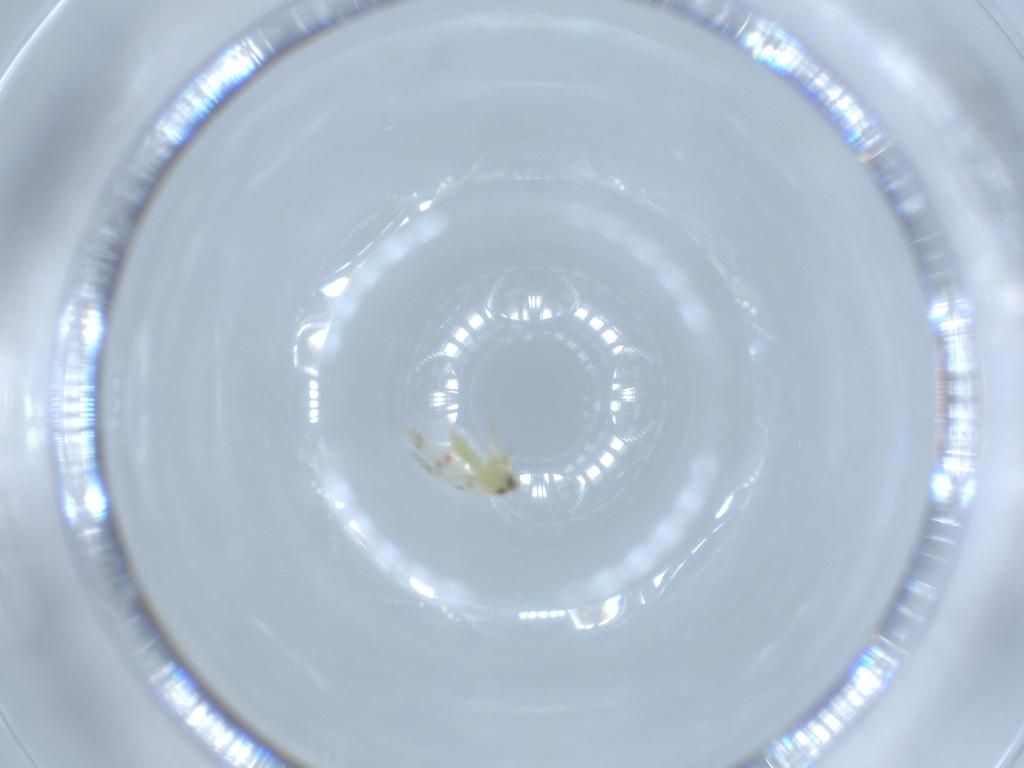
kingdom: Animalia
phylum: Arthropoda
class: Insecta
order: Hemiptera
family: Aleyrodidae
